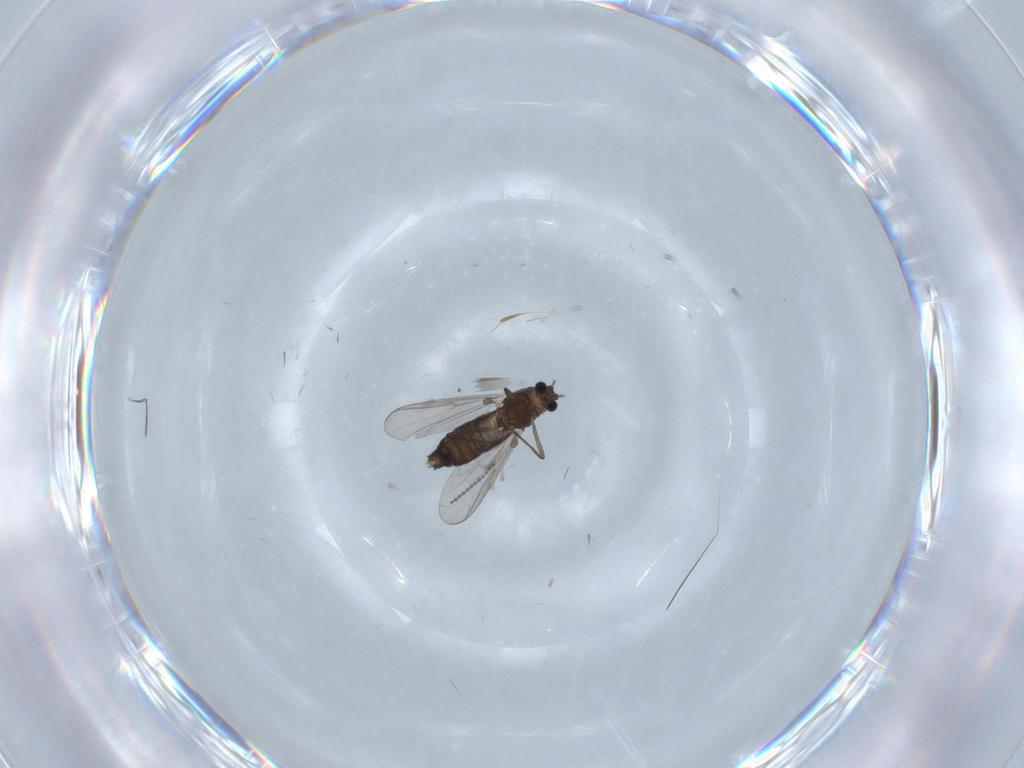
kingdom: Animalia
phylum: Arthropoda
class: Insecta
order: Diptera
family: Chironomidae
